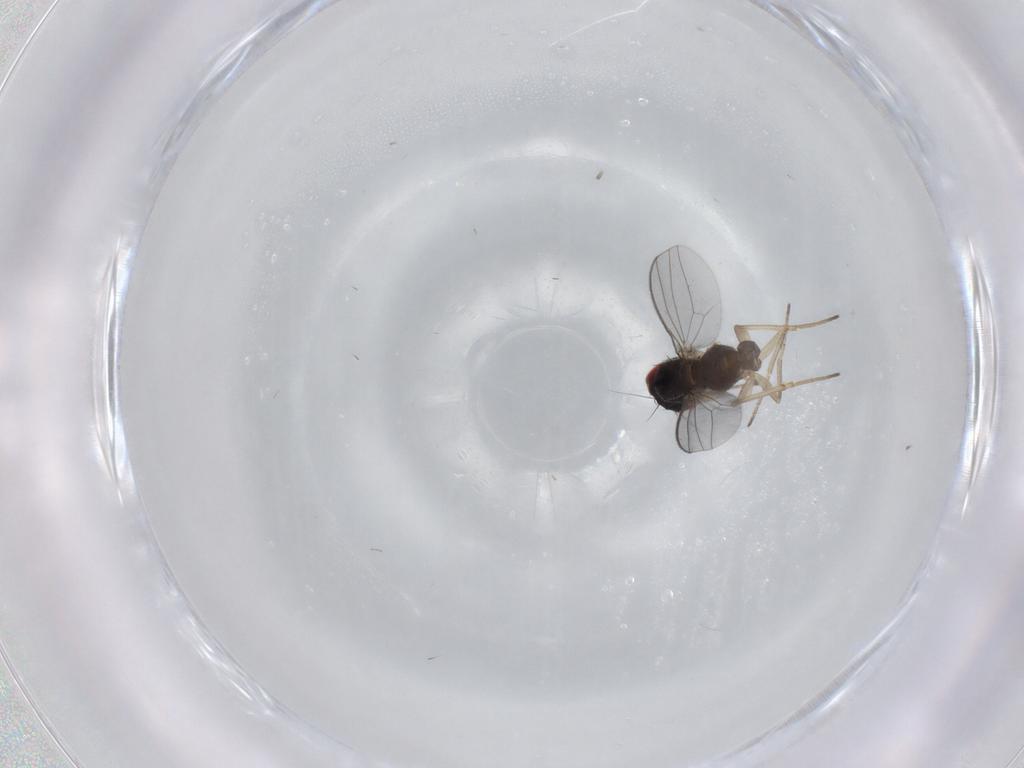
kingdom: Animalia
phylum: Arthropoda
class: Insecta
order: Diptera
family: Dolichopodidae
